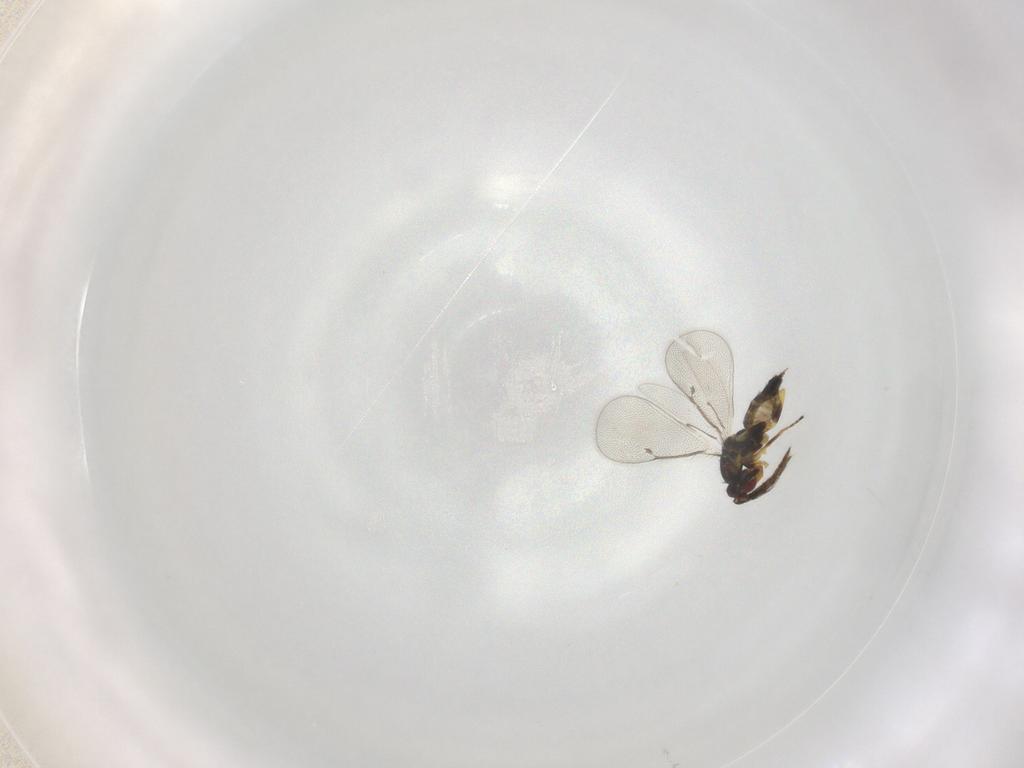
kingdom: Animalia
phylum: Arthropoda
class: Insecta
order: Hymenoptera
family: Eulophidae
